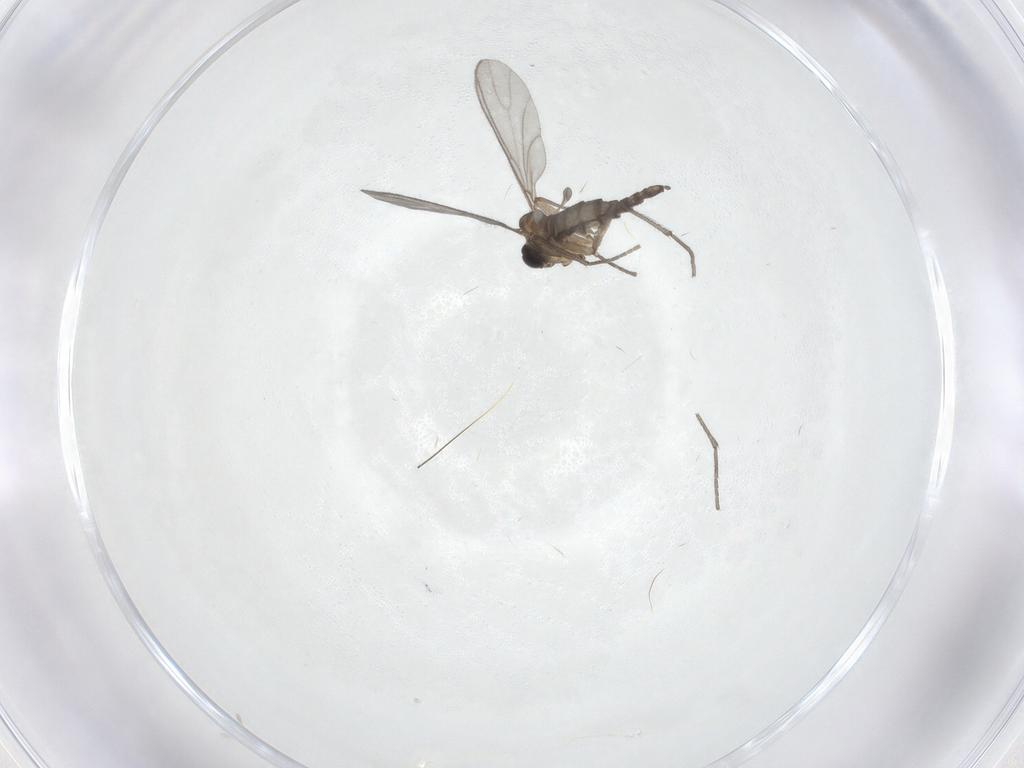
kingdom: Animalia
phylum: Arthropoda
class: Insecta
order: Diptera
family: Sciaridae
